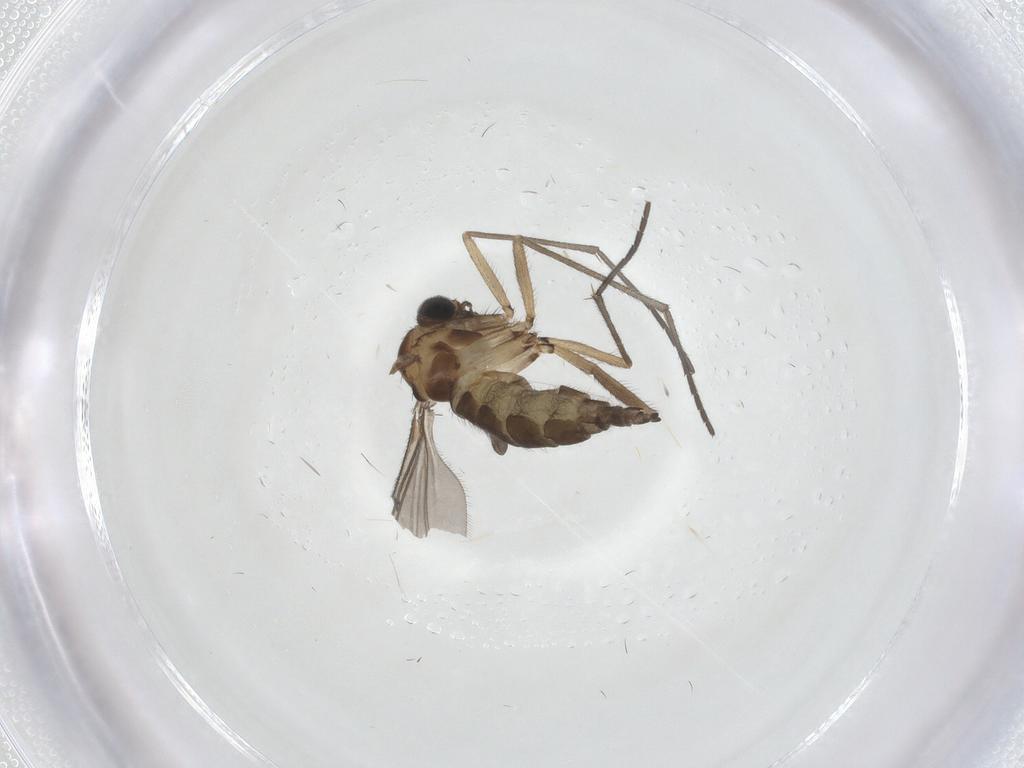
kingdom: Animalia
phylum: Arthropoda
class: Insecta
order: Diptera
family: Sciaridae
